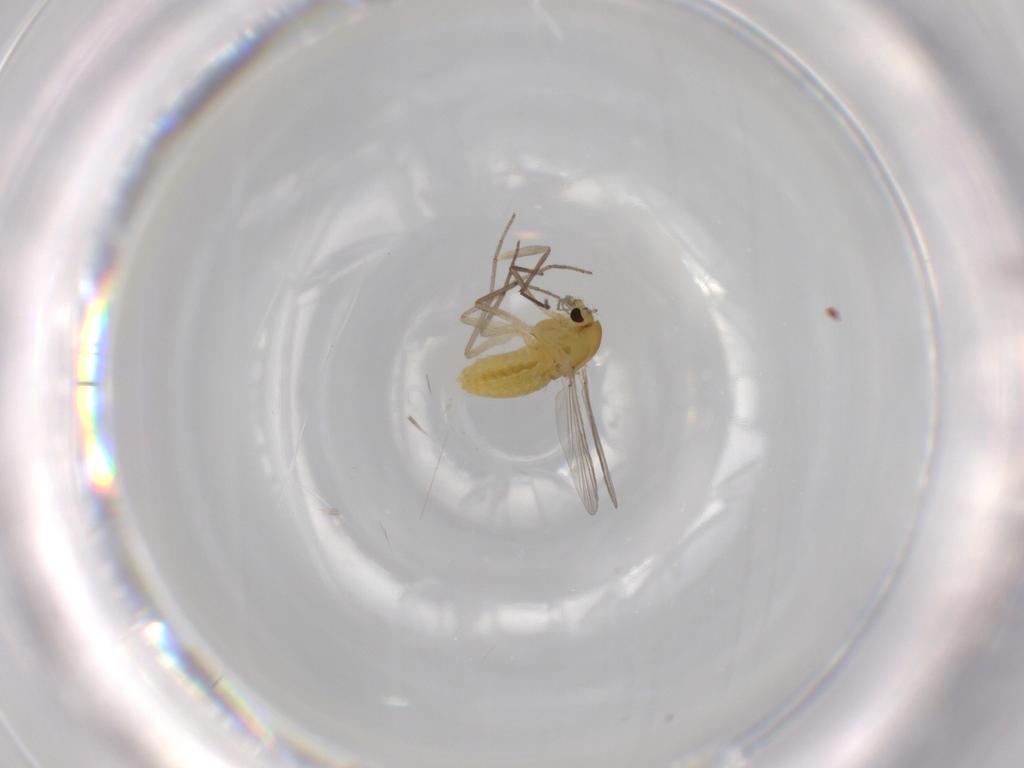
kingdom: Animalia
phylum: Arthropoda
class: Insecta
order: Diptera
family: Chironomidae
